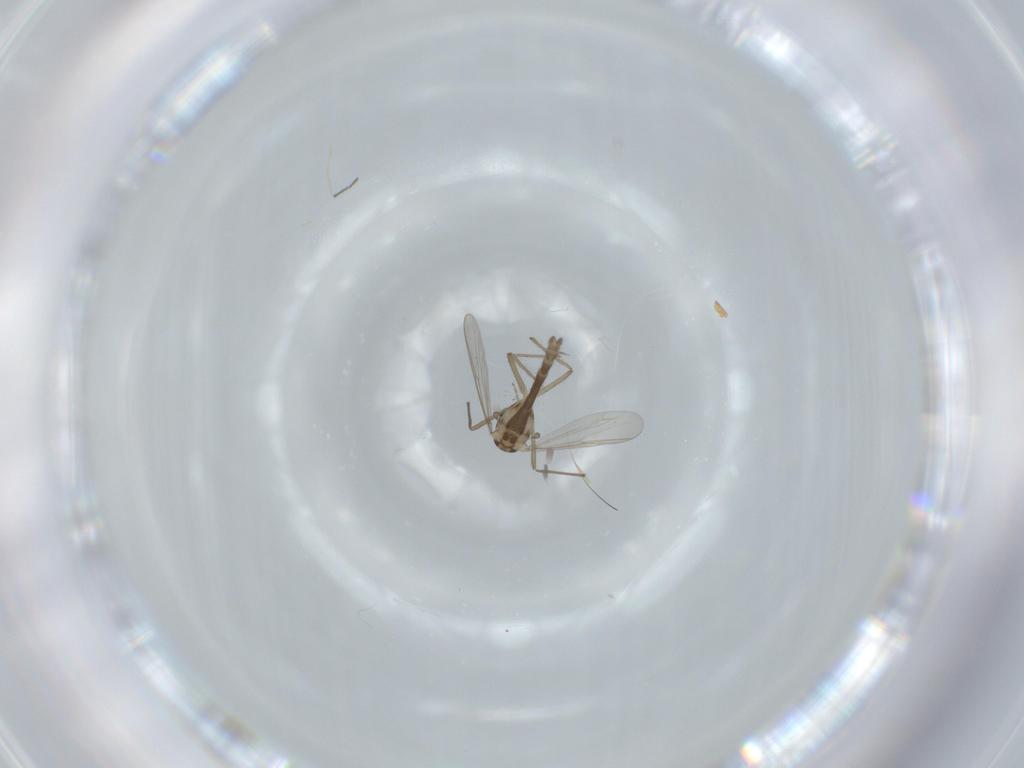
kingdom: Animalia
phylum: Arthropoda
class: Insecta
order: Diptera
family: Chironomidae
